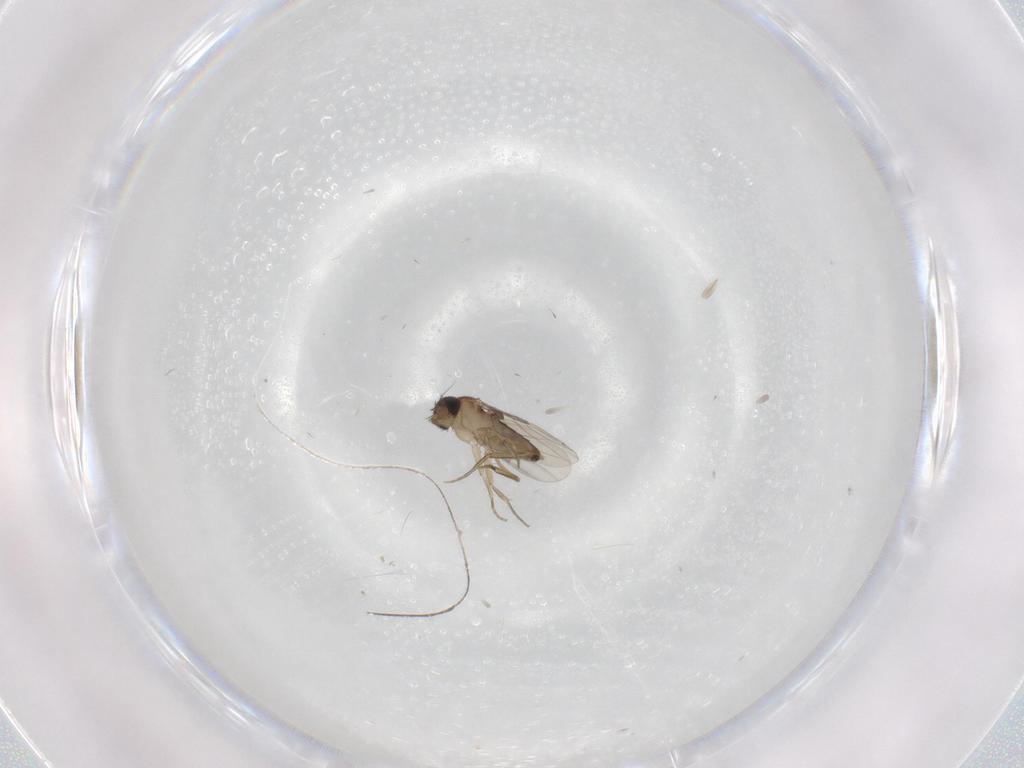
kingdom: Animalia
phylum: Arthropoda
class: Insecta
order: Diptera
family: Phoridae
